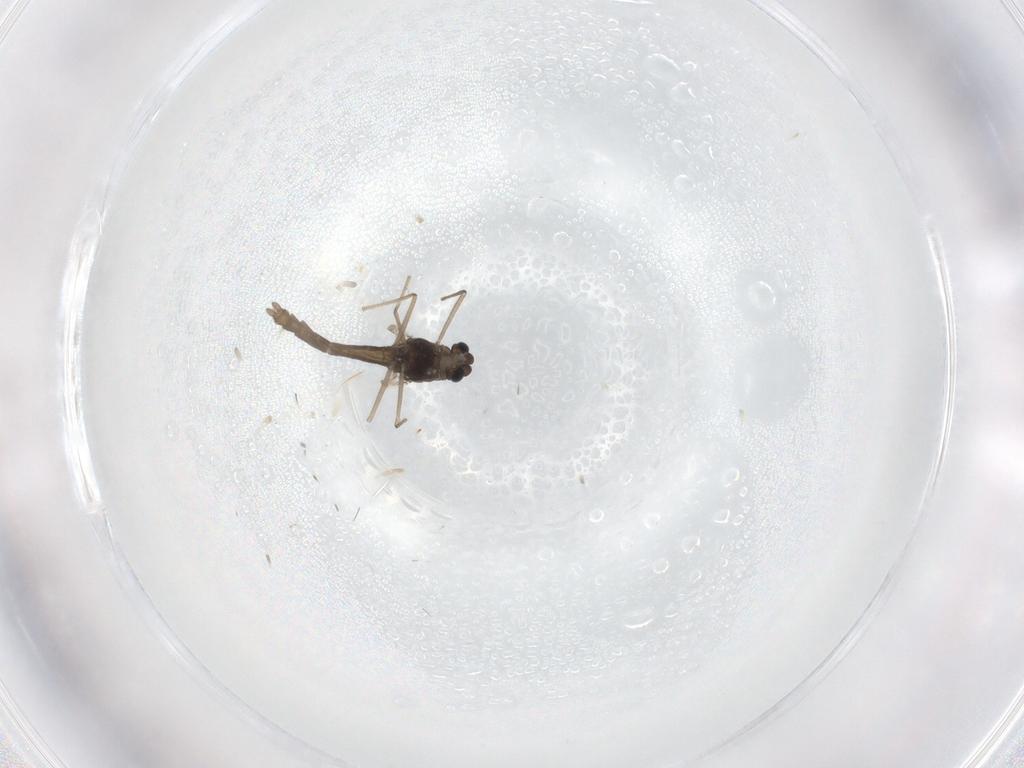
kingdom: Animalia
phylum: Arthropoda
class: Insecta
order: Diptera
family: Chironomidae
